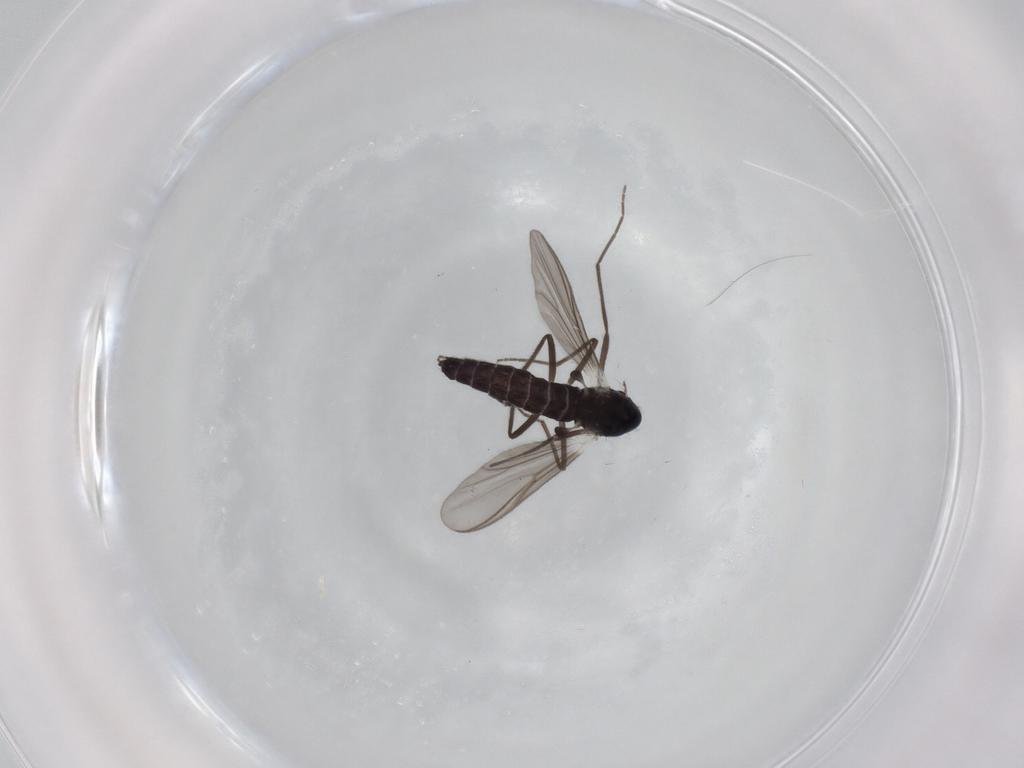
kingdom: Animalia
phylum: Arthropoda
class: Insecta
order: Diptera
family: Chironomidae
